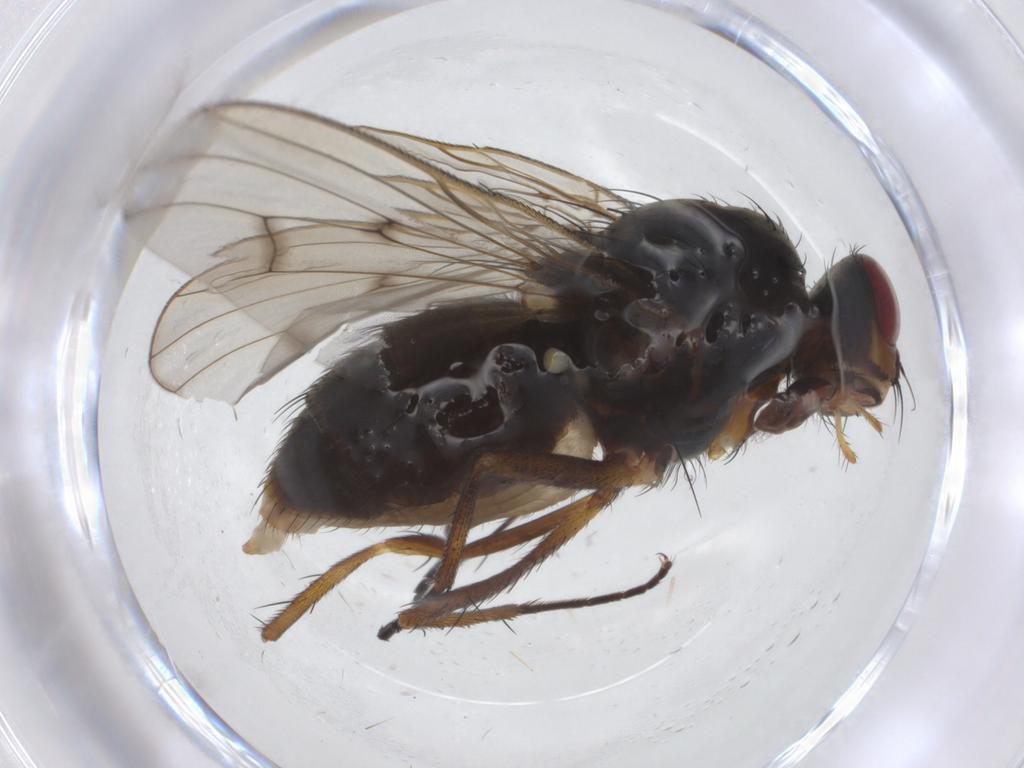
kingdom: Animalia
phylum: Arthropoda
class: Insecta
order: Diptera
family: Anthomyiidae
